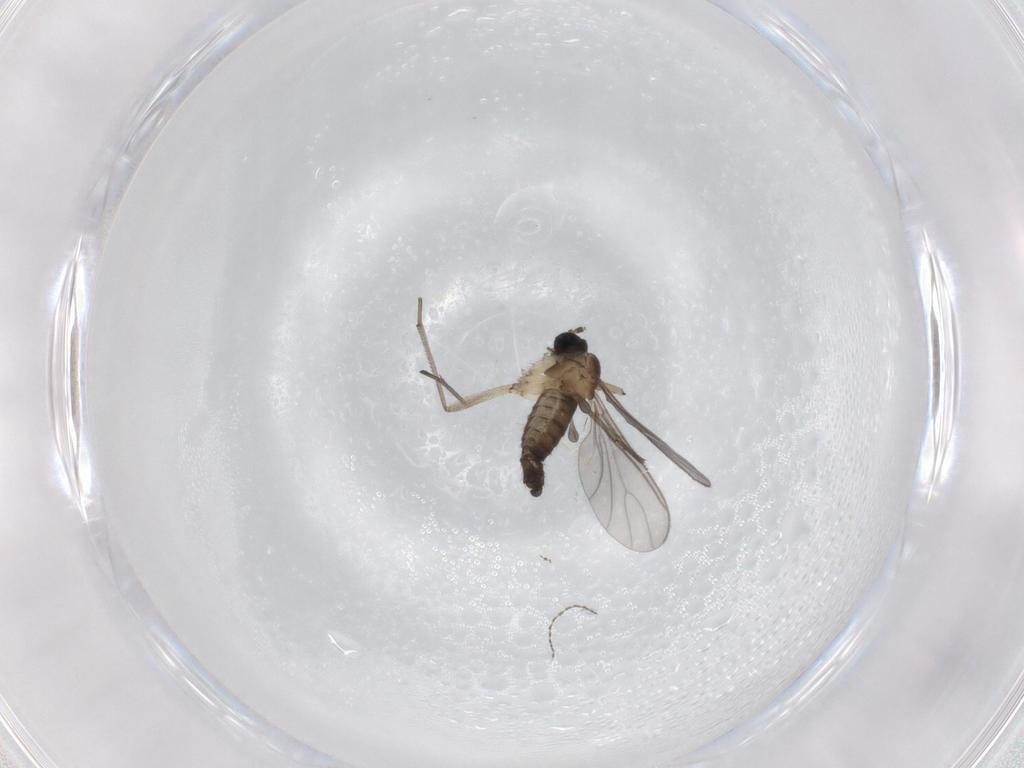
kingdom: Animalia
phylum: Arthropoda
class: Insecta
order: Diptera
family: Sciaridae
